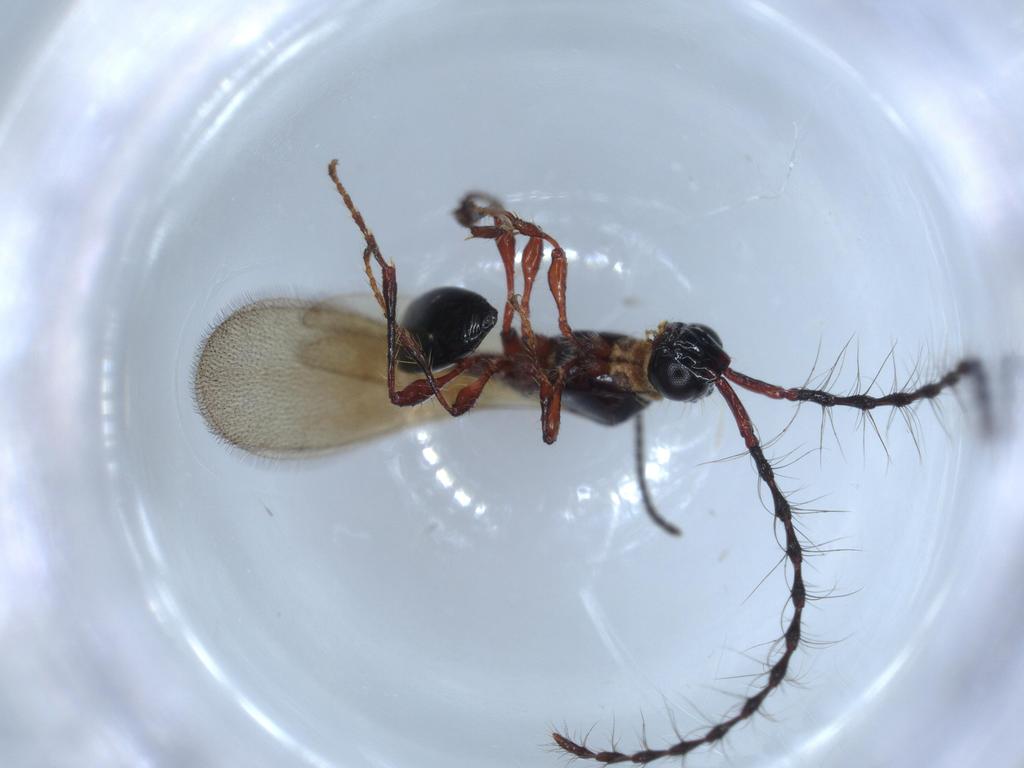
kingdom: Animalia
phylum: Arthropoda
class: Insecta
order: Hymenoptera
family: Diapriidae
